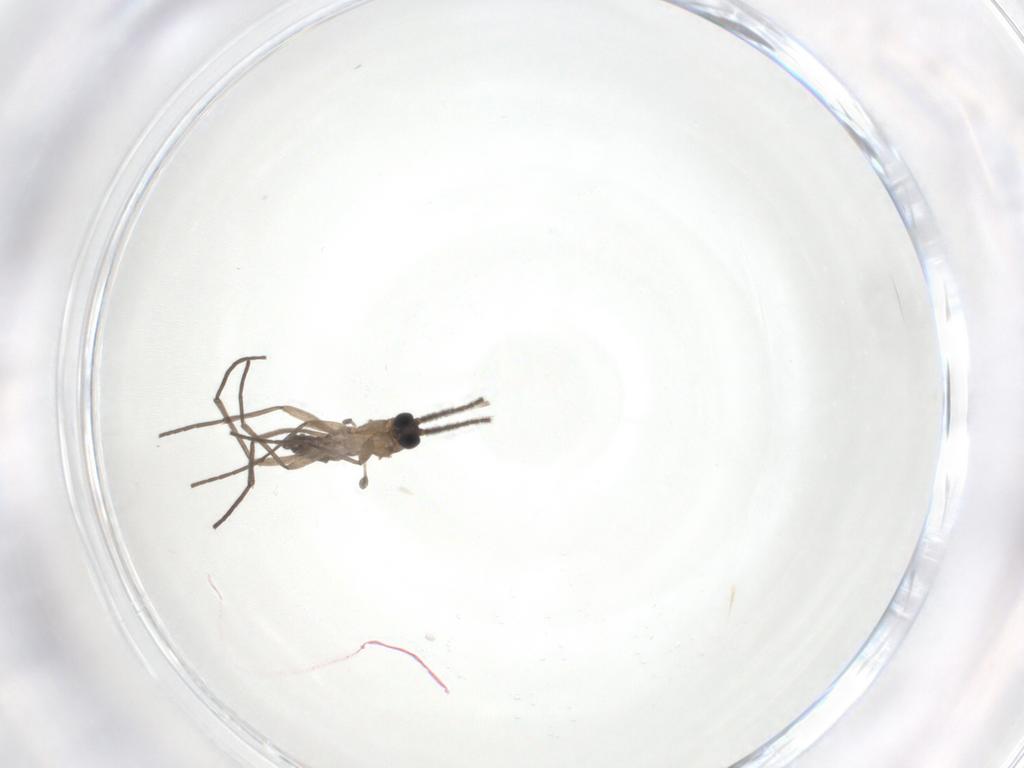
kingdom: Animalia
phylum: Arthropoda
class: Insecta
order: Diptera
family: Sciaridae
